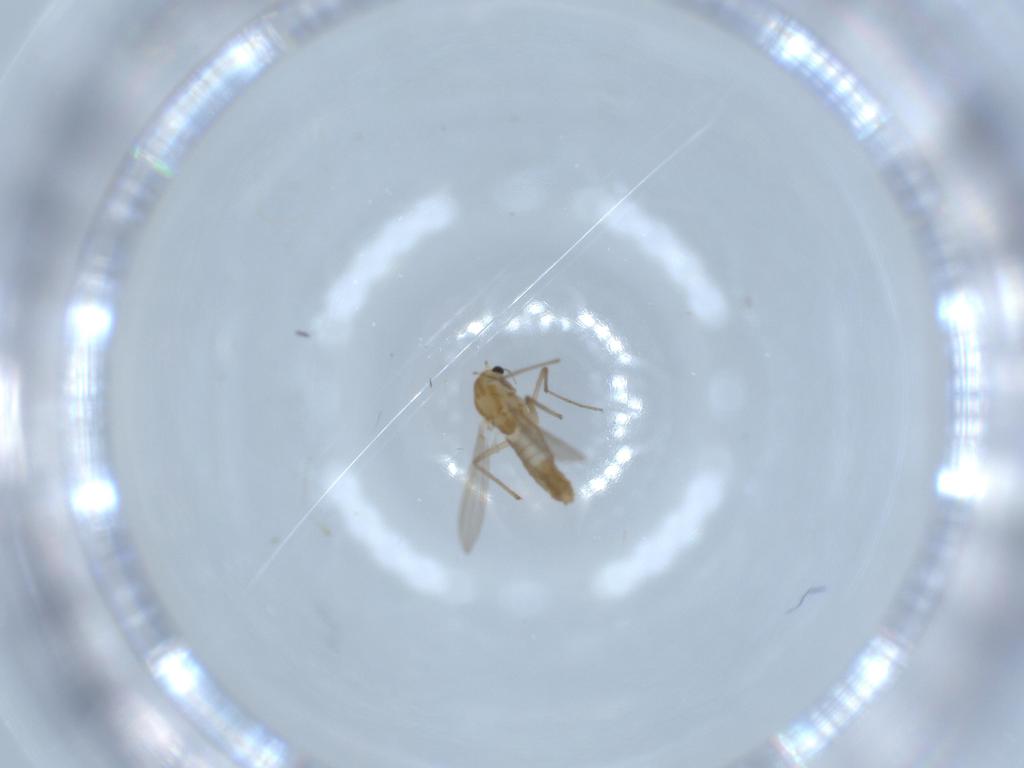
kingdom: Animalia
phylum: Arthropoda
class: Insecta
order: Diptera
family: Chironomidae
